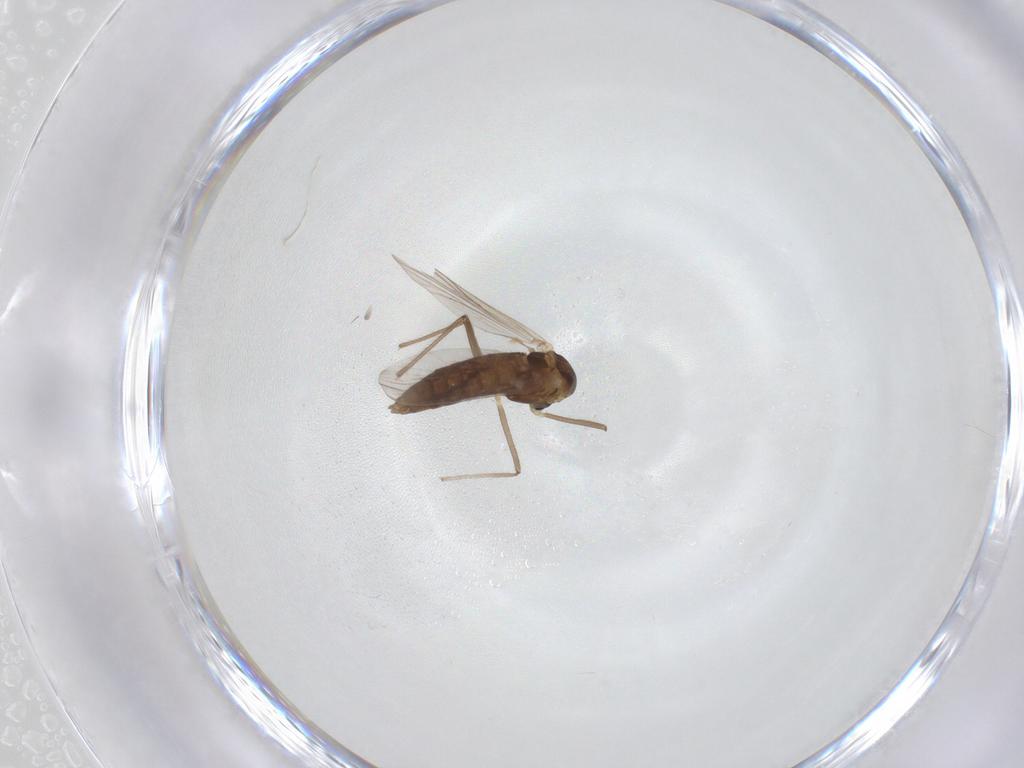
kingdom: Animalia
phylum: Arthropoda
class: Insecta
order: Diptera
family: Chironomidae
